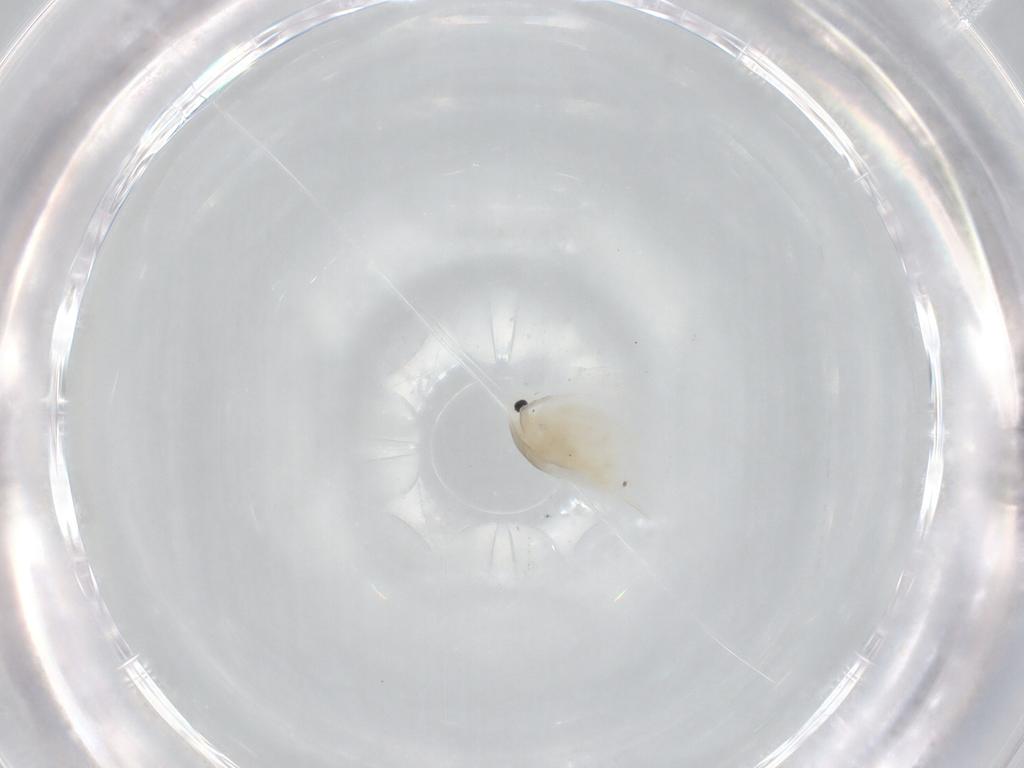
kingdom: Animalia
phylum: Arthropoda
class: Branchiopoda
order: Diplostraca
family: Daphniidae
